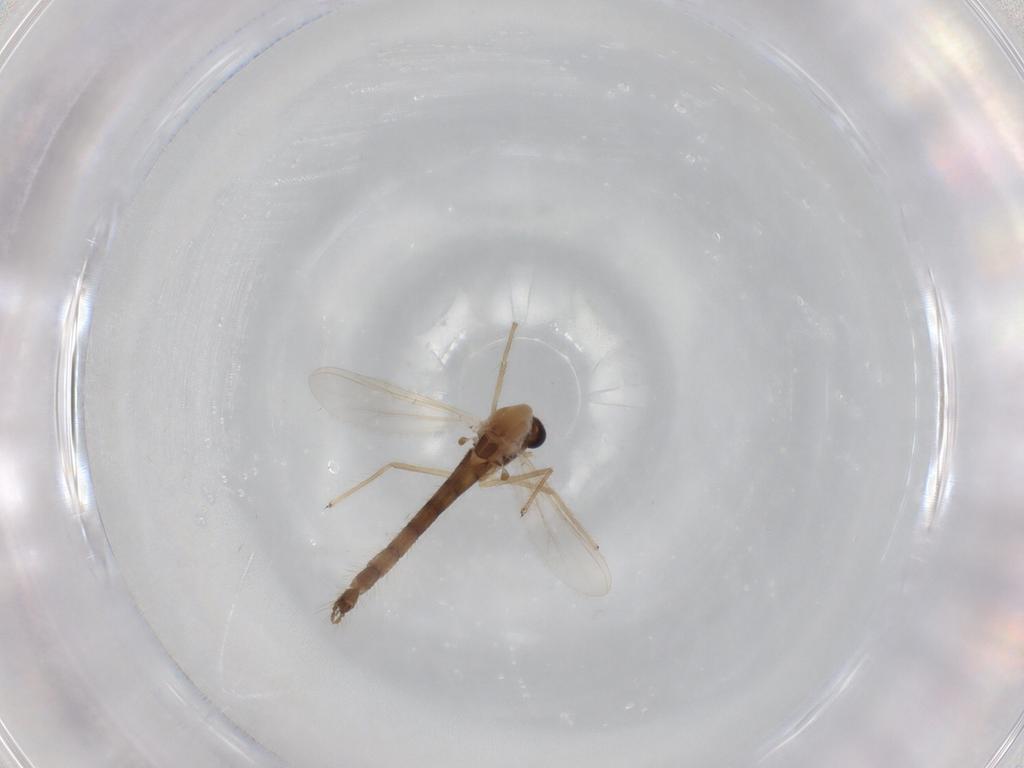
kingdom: Animalia
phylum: Arthropoda
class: Insecta
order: Diptera
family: Chironomidae
